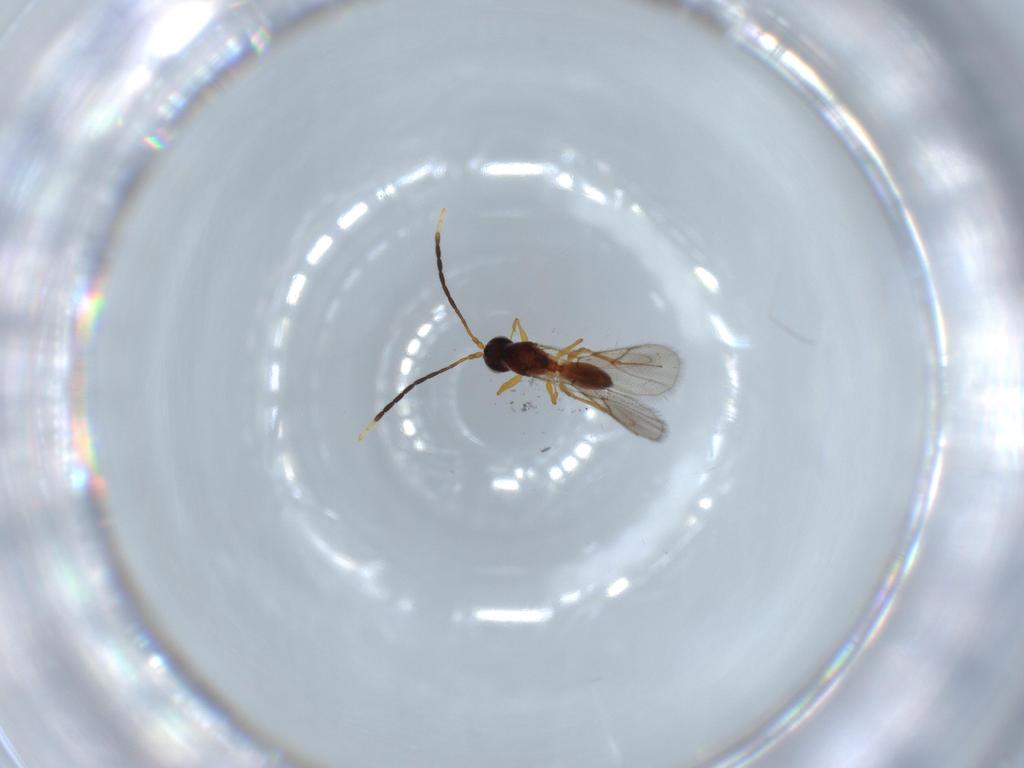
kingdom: Animalia
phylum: Arthropoda
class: Insecta
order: Hymenoptera
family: Figitidae
